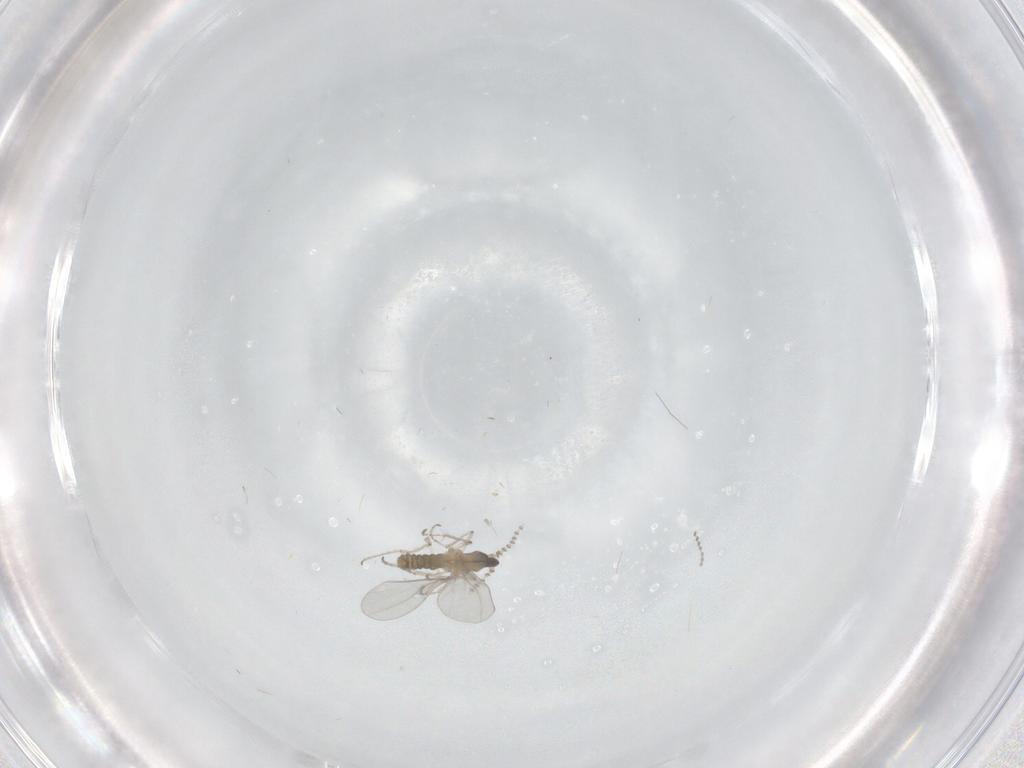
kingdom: Animalia
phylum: Arthropoda
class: Insecta
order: Diptera
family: Cecidomyiidae
